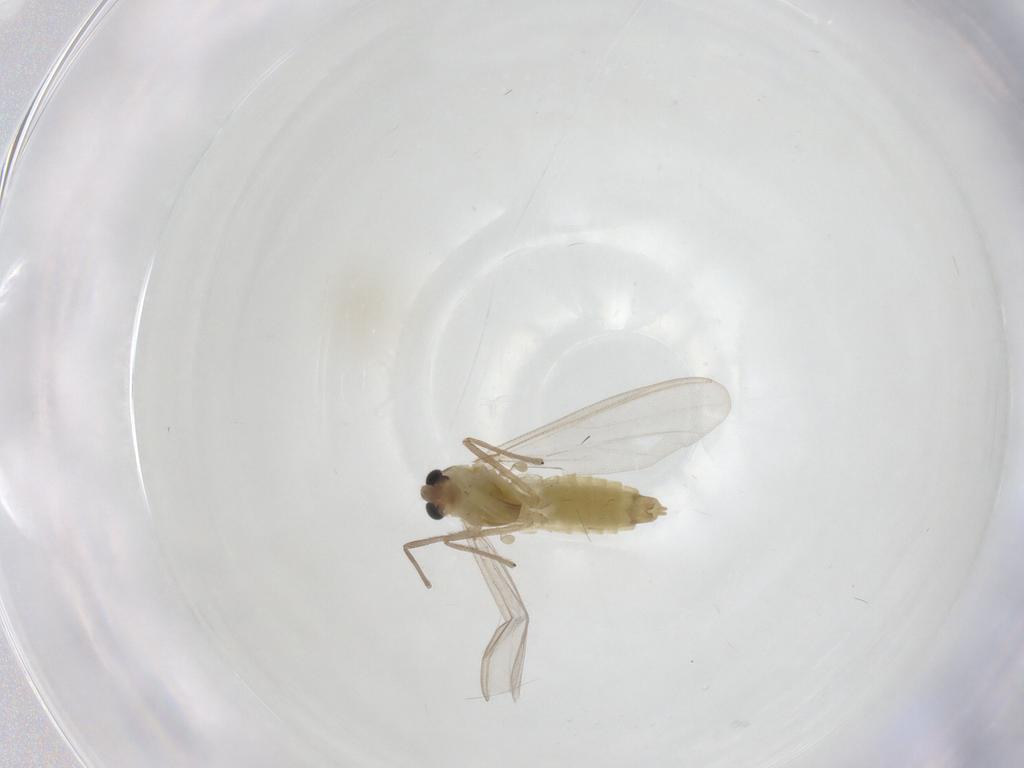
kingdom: Animalia
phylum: Arthropoda
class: Insecta
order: Diptera
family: Chironomidae
